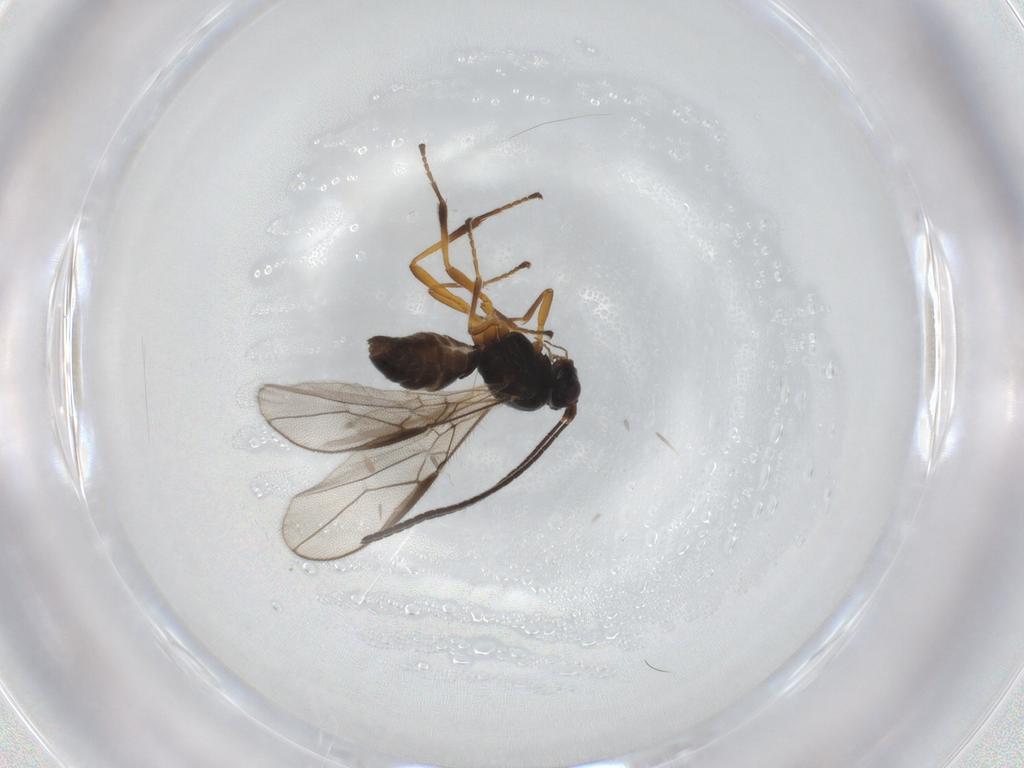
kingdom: Animalia
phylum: Arthropoda
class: Insecta
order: Hymenoptera
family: Braconidae
